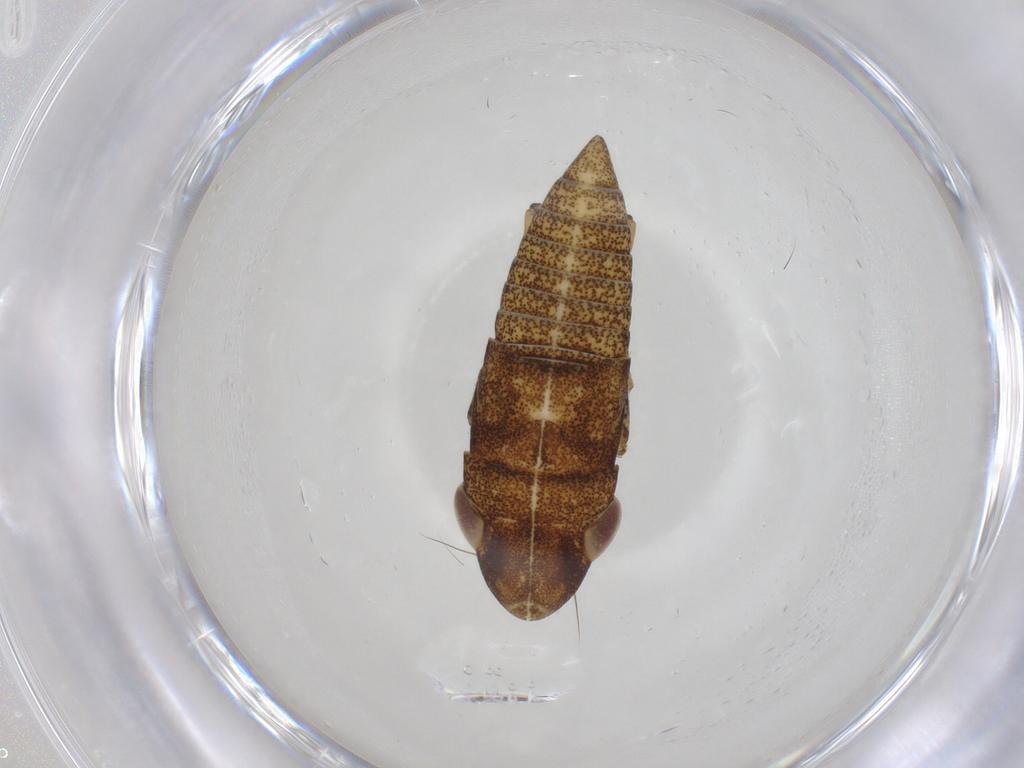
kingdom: Animalia
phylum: Arthropoda
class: Insecta
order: Hemiptera
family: Cicadellidae
